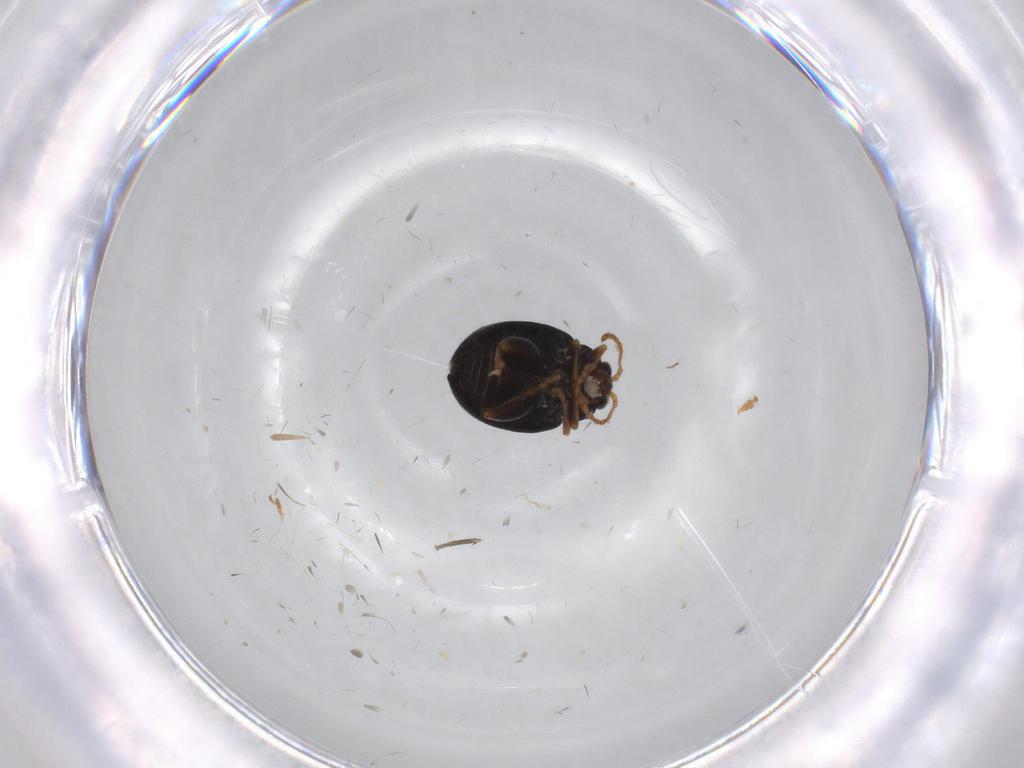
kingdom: Animalia
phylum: Arthropoda
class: Insecta
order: Coleoptera
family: Chrysomelidae
